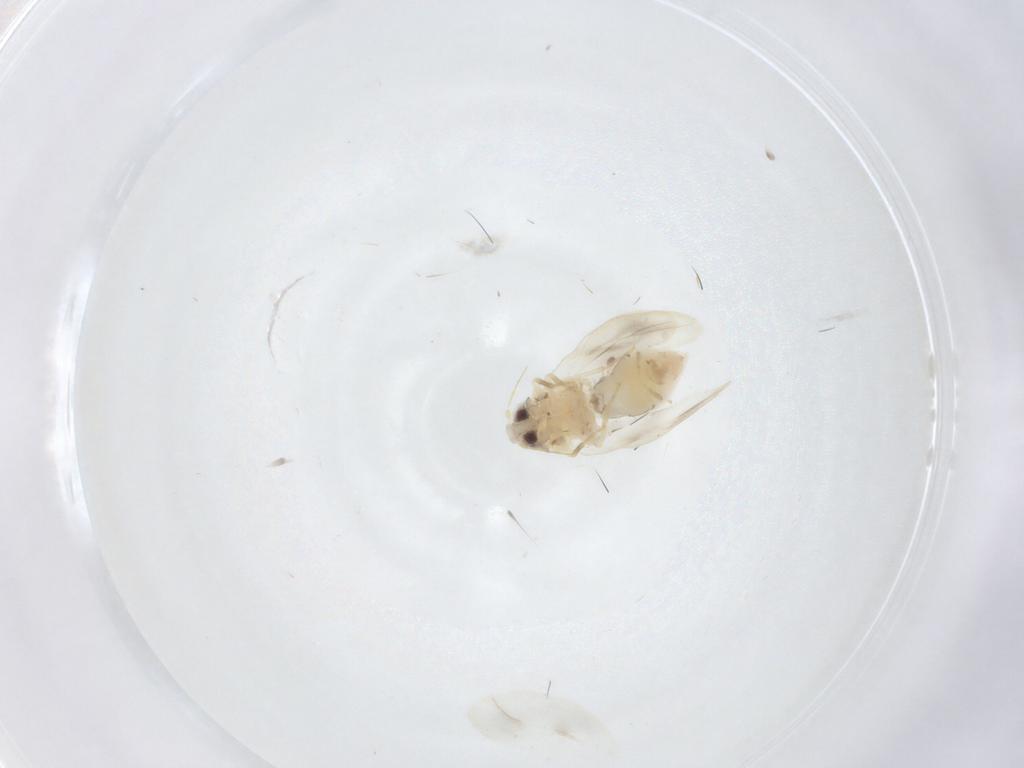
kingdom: Animalia
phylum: Arthropoda
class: Insecta
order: Hemiptera
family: Aleyrodidae
